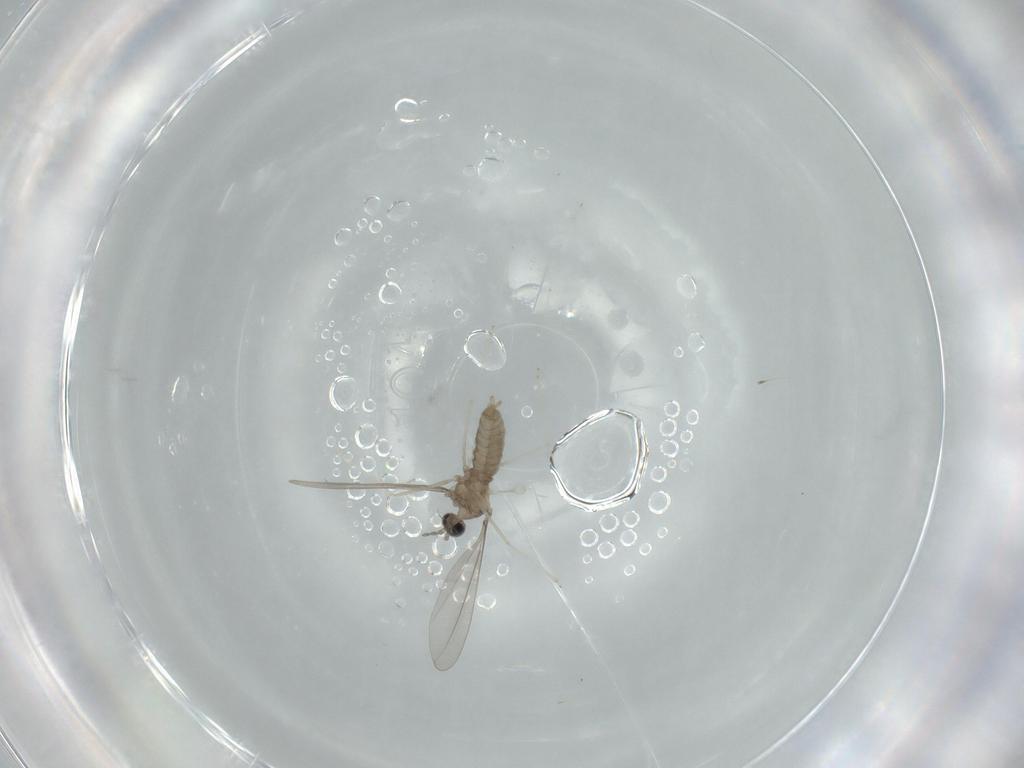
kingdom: Animalia
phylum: Arthropoda
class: Insecta
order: Diptera
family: Cecidomyiidae
